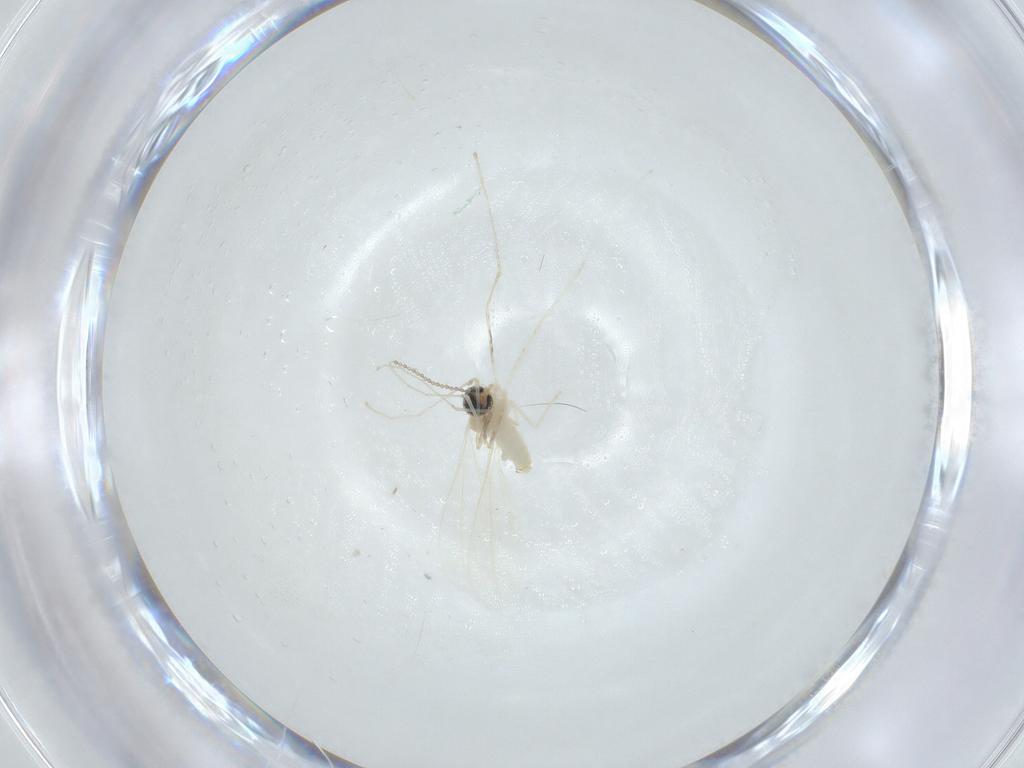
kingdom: Animalia
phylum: Arthropoda
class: Insecta
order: Diptera
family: Cecidomyiidae
